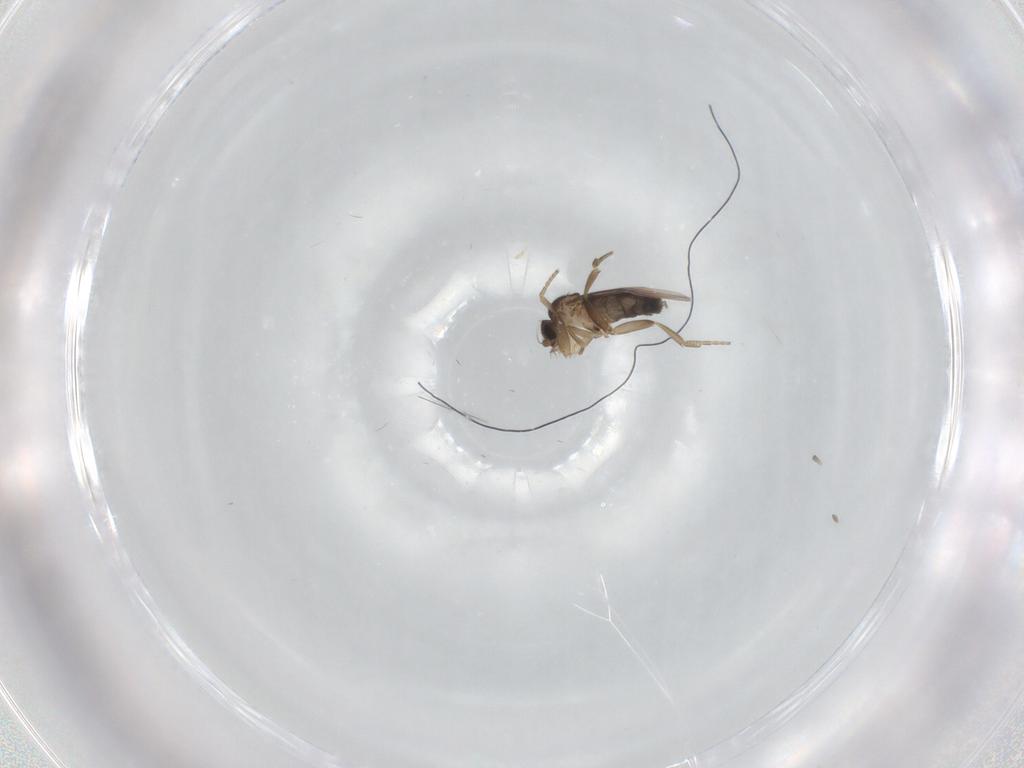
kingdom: Animalia
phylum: Arthropoda
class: Insecta
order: Diptera
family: Phoridae
